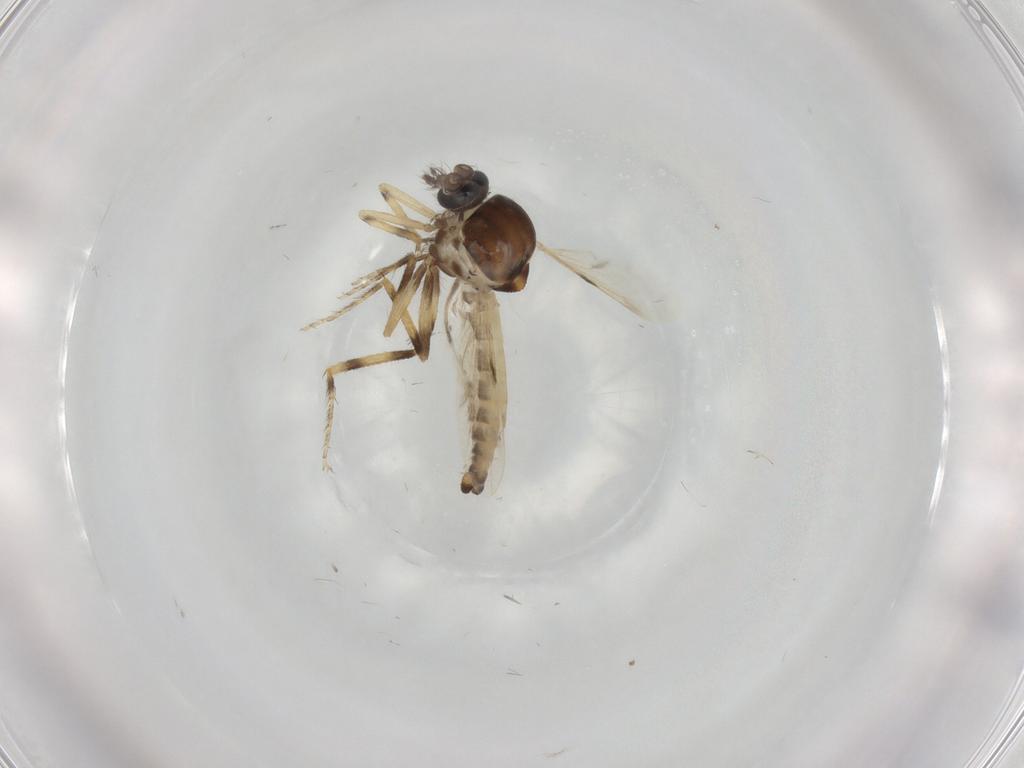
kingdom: Animalia
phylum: Arthropoda
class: Insecta
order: Diptera
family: Ceratopogonidae
